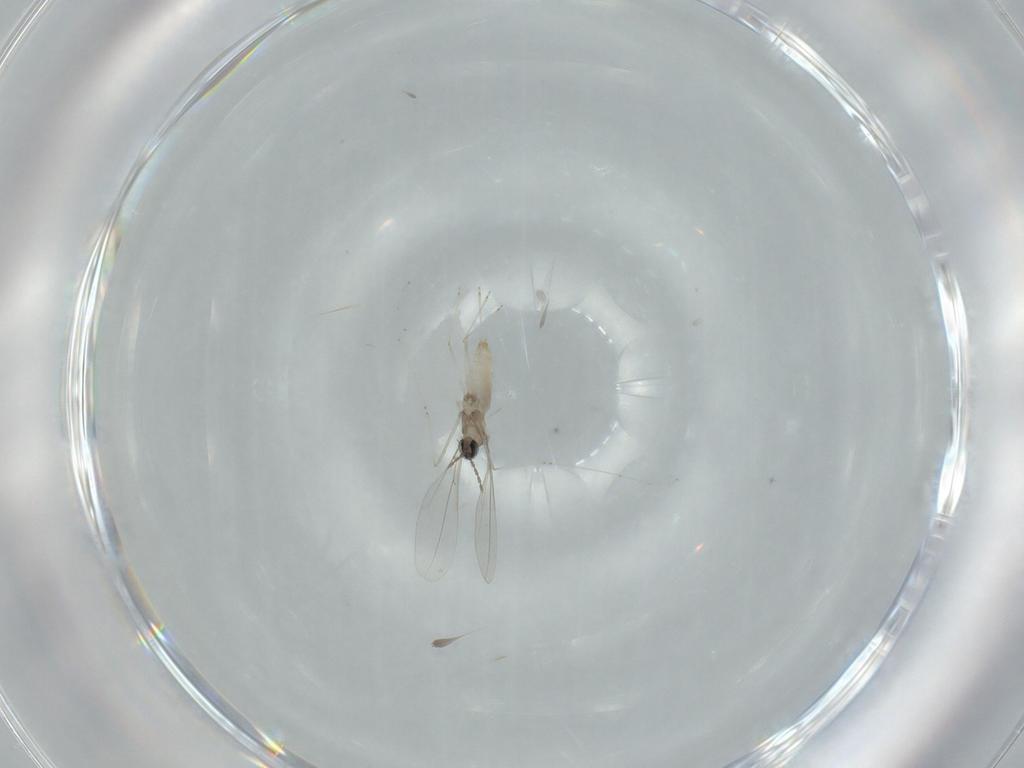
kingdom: Animalia
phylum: Arthropoda
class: Insecta
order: Diptera
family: Cecidomyiidae
